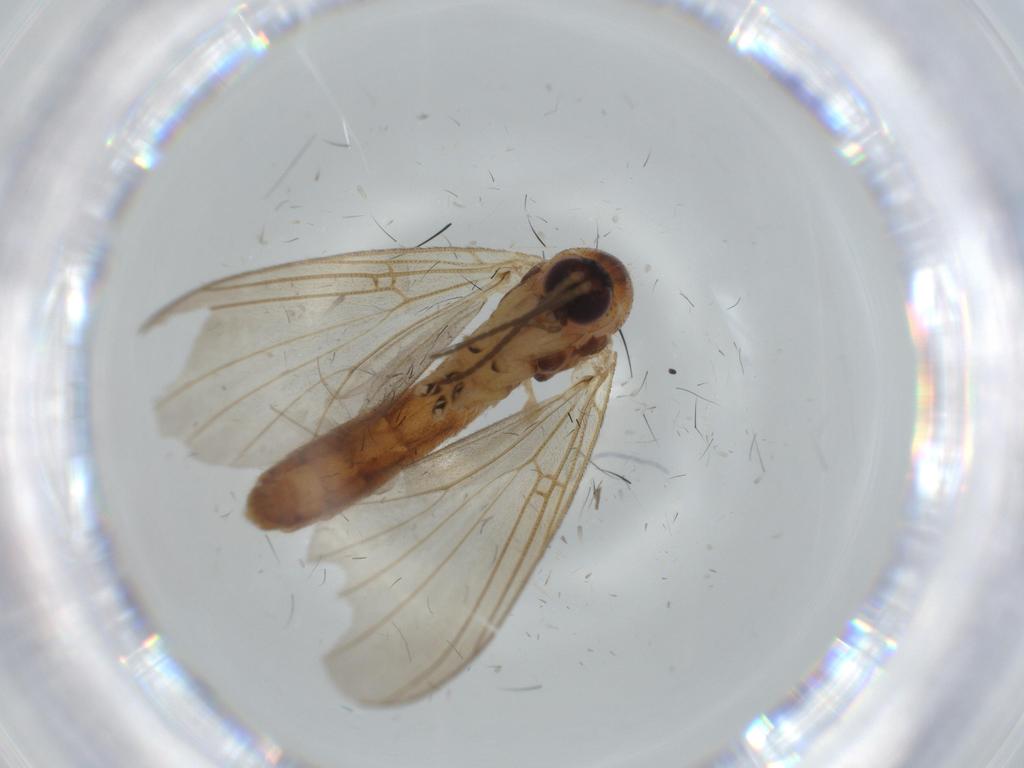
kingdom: Animalia
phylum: Arthropoda
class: Insecta
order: Diptera
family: Calliphoridae
